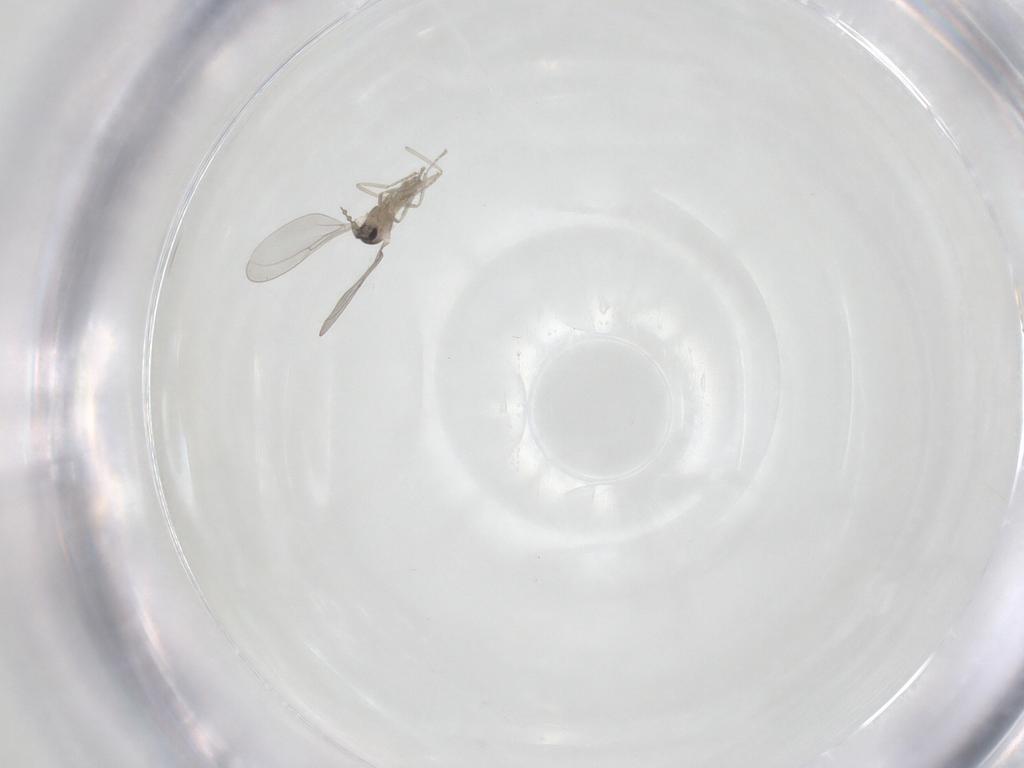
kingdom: Animalia
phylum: Arthropoda
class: Insecta
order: Diptera
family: Cecidomyiidae
